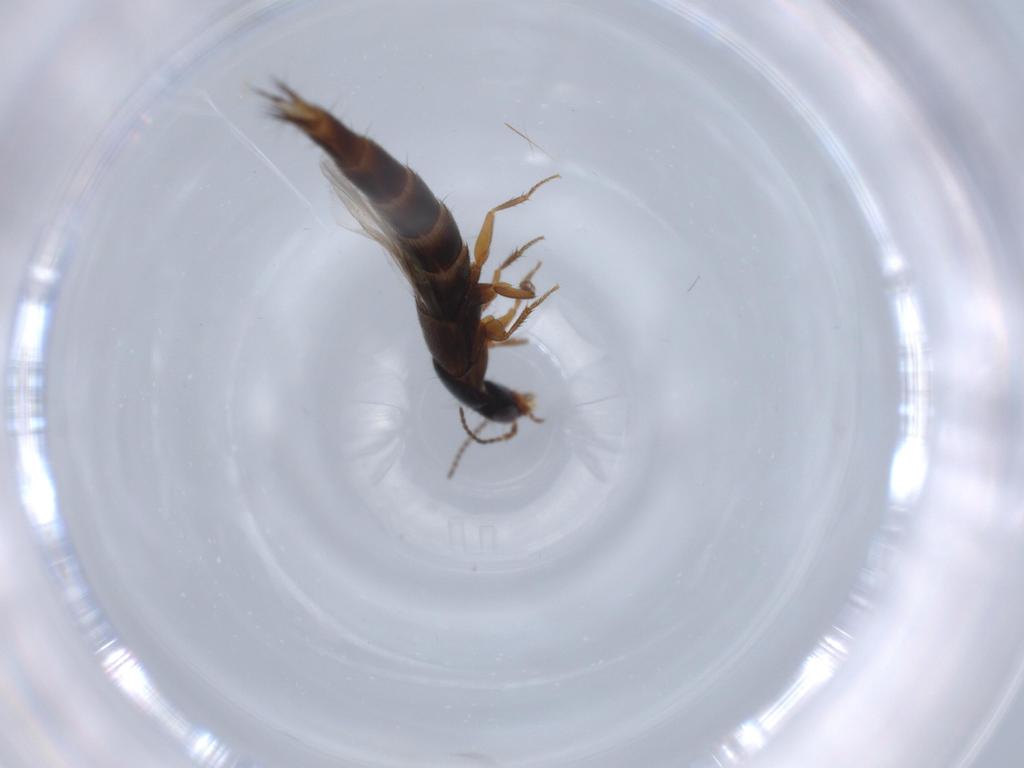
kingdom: Animalia
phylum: Arthropoda
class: Insecta
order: Coleoptera
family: Staphylinidae
